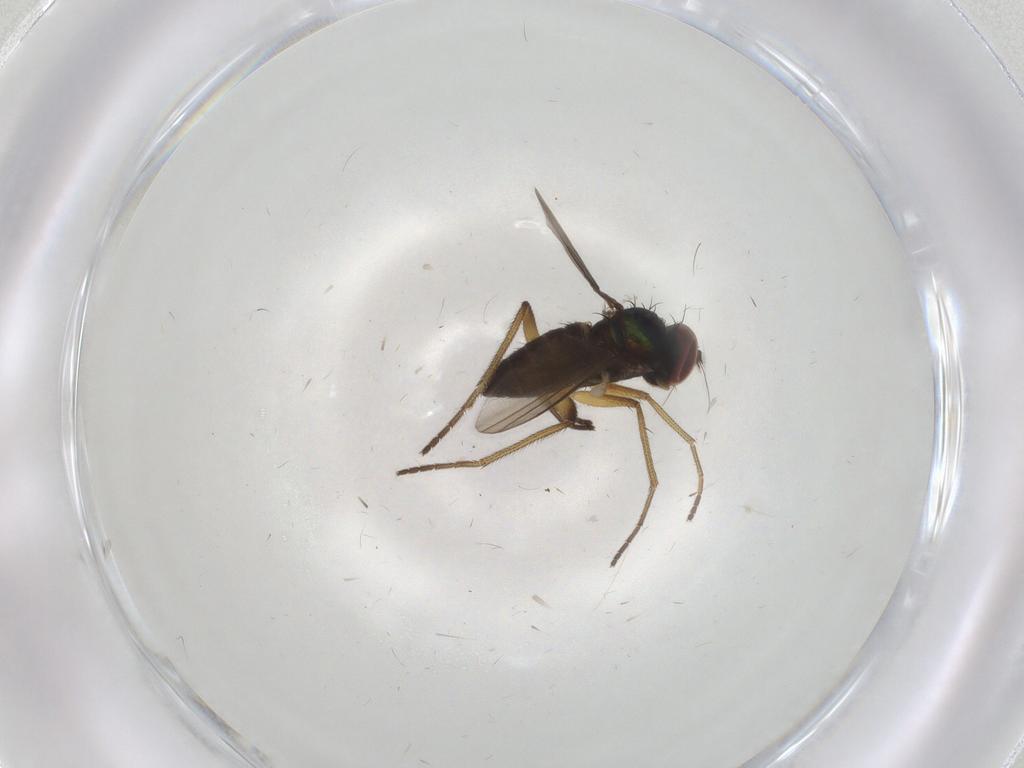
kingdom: Animalia
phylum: Arthropoda
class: Insecta
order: Diptera
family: Dolichopodidae
